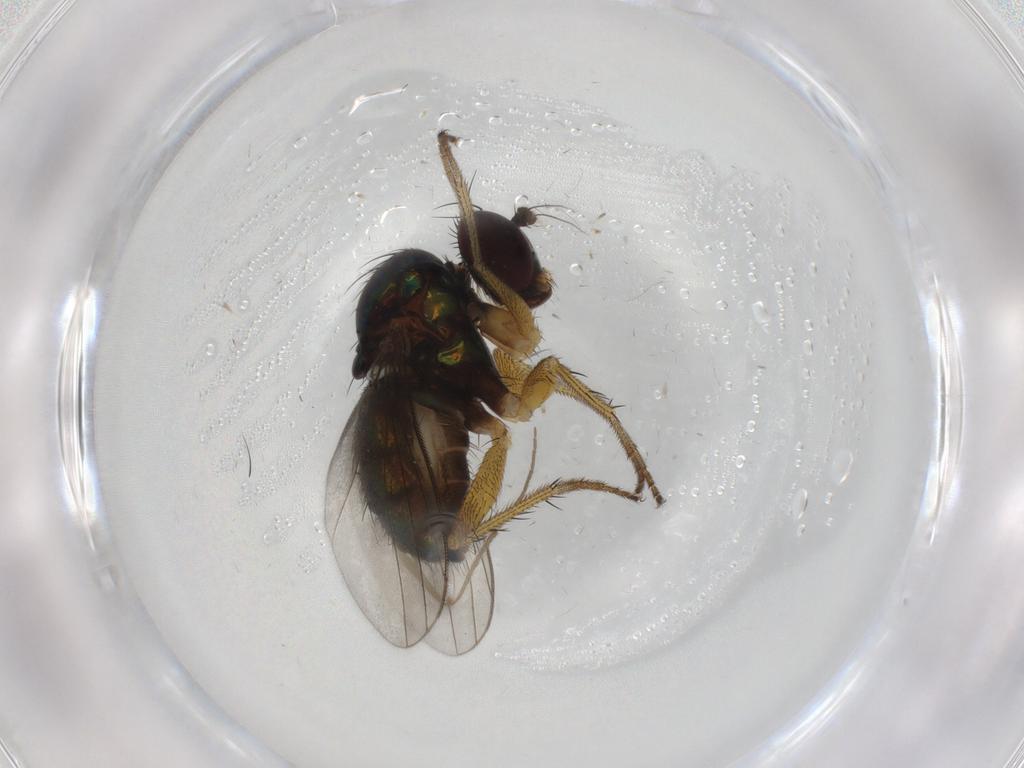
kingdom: Animalia
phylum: Arthropoda
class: Insecta
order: Diptera
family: Dolichopodidae
